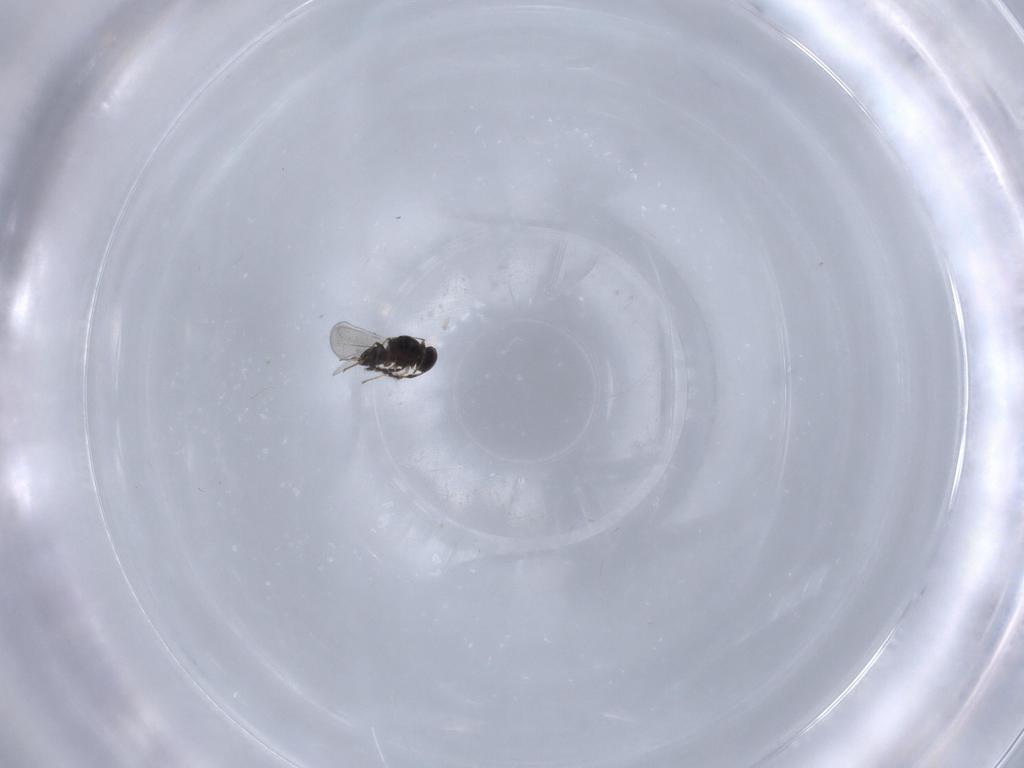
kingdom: Animalia
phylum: Arthropoda
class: Insecta
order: Hymenoptera
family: Platygastridae
